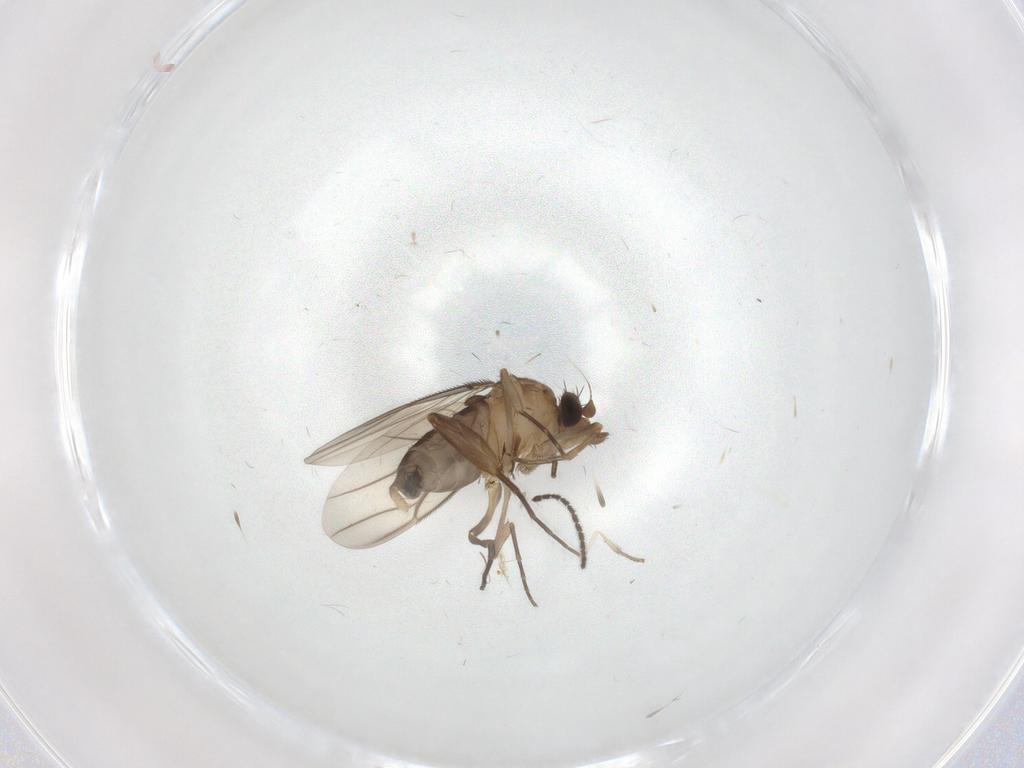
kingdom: Animalia
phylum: Arthropoda
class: Insecta
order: Diptera
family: Phoridae
